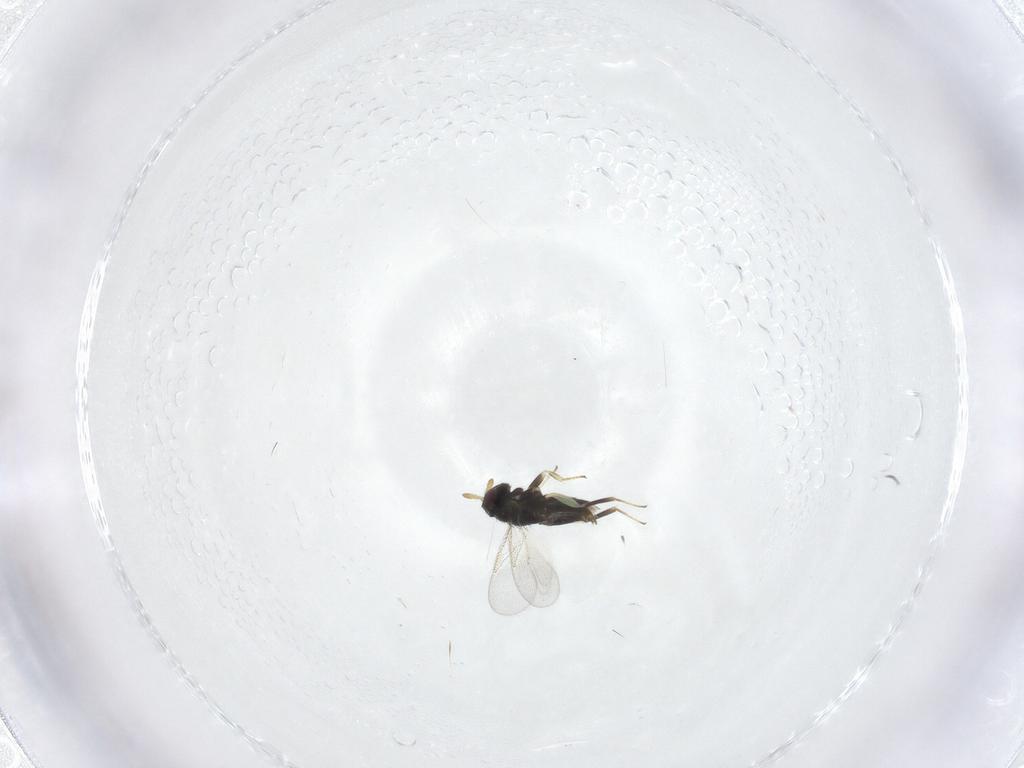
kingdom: Animalia
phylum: Arthropoda
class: Insecta
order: Hymenoptera
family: Aphelinidae
